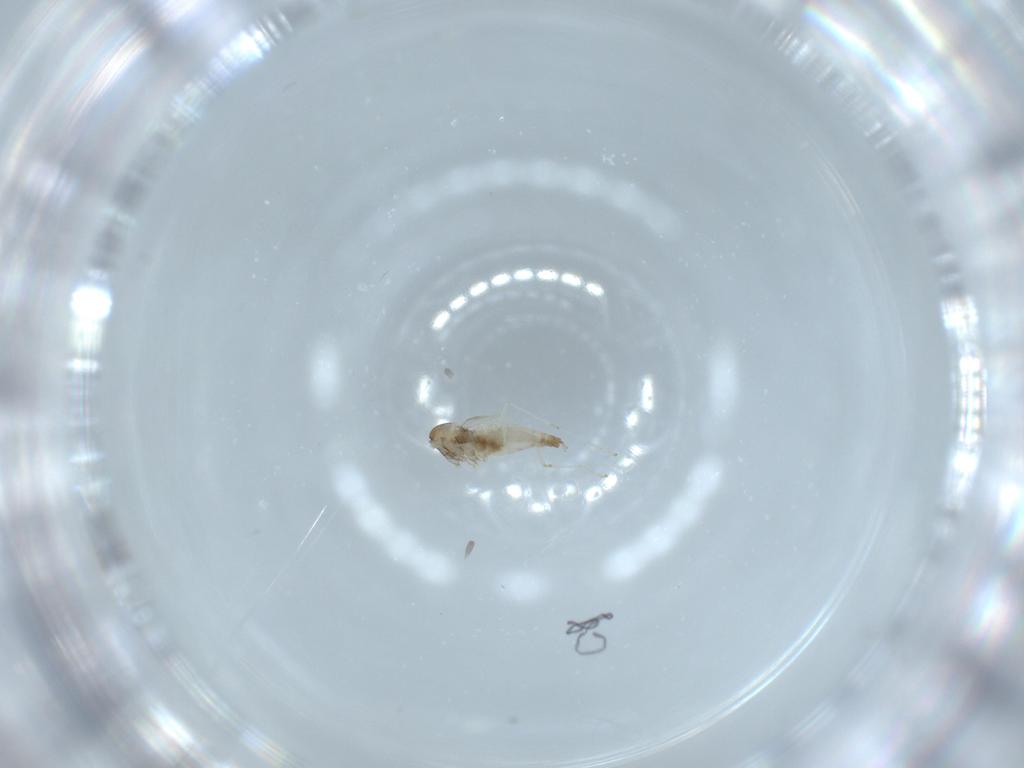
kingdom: Animalia
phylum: Arthropoda
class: Insecta
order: Diptera
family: Cecidomyiidae
